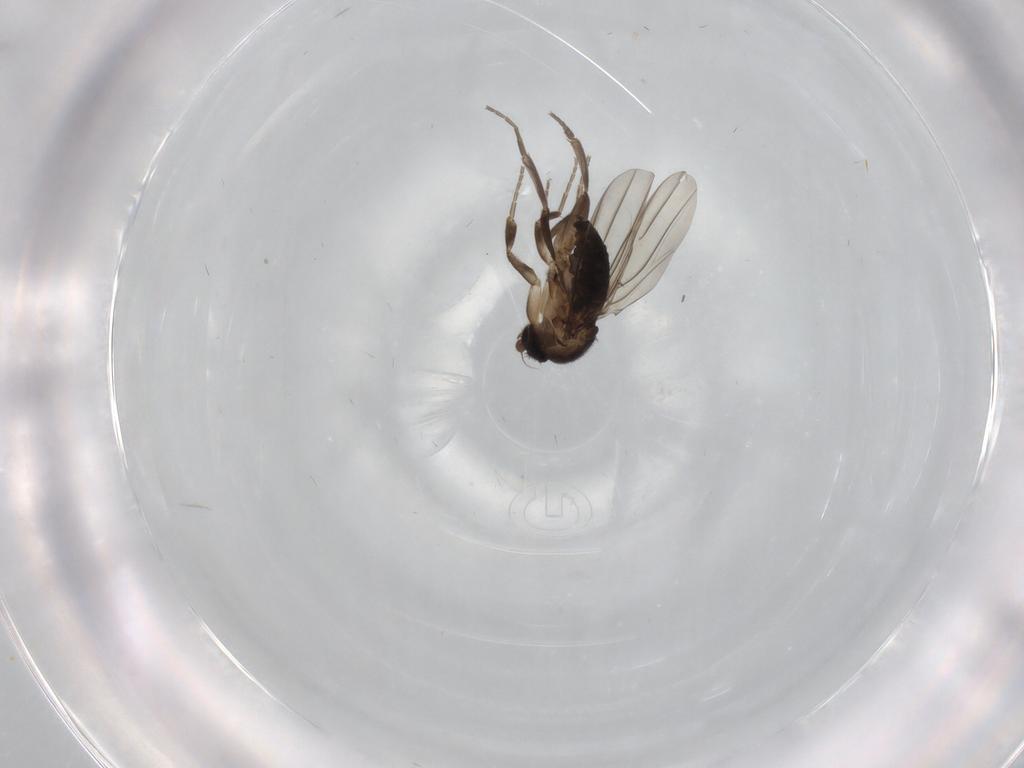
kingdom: Animalia
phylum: Arthropoda
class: Insecta
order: Diptera
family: Phoridae
